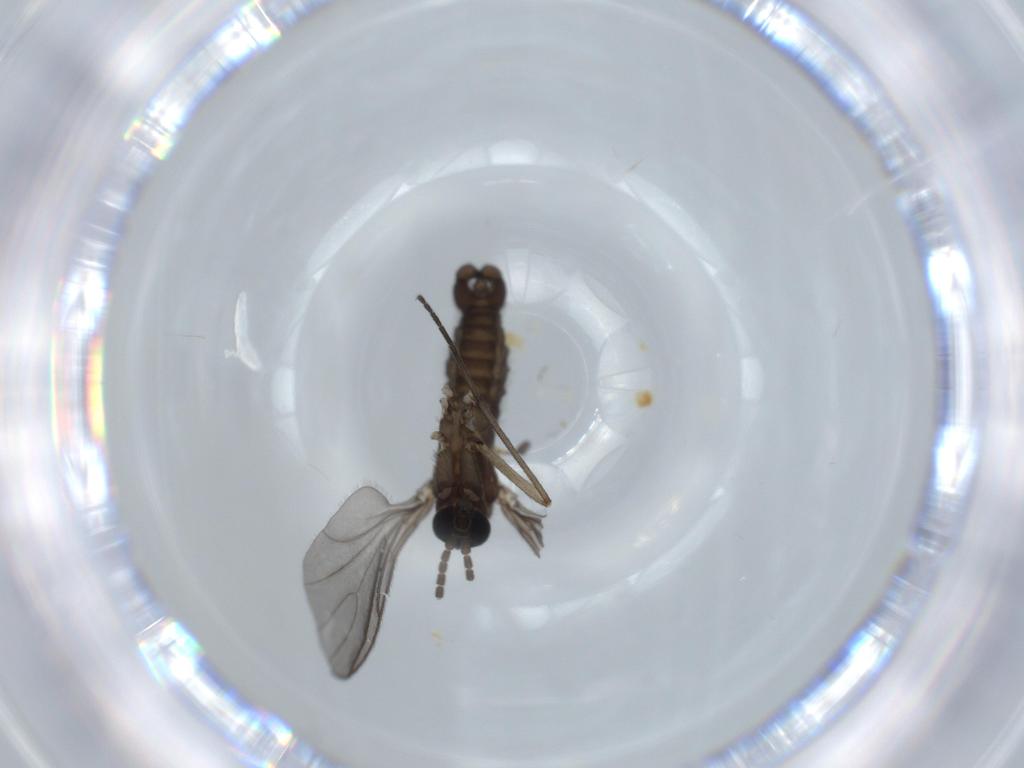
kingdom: Animalia
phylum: Arthropoda
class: Insecta
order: Diptera
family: Sciaridae
